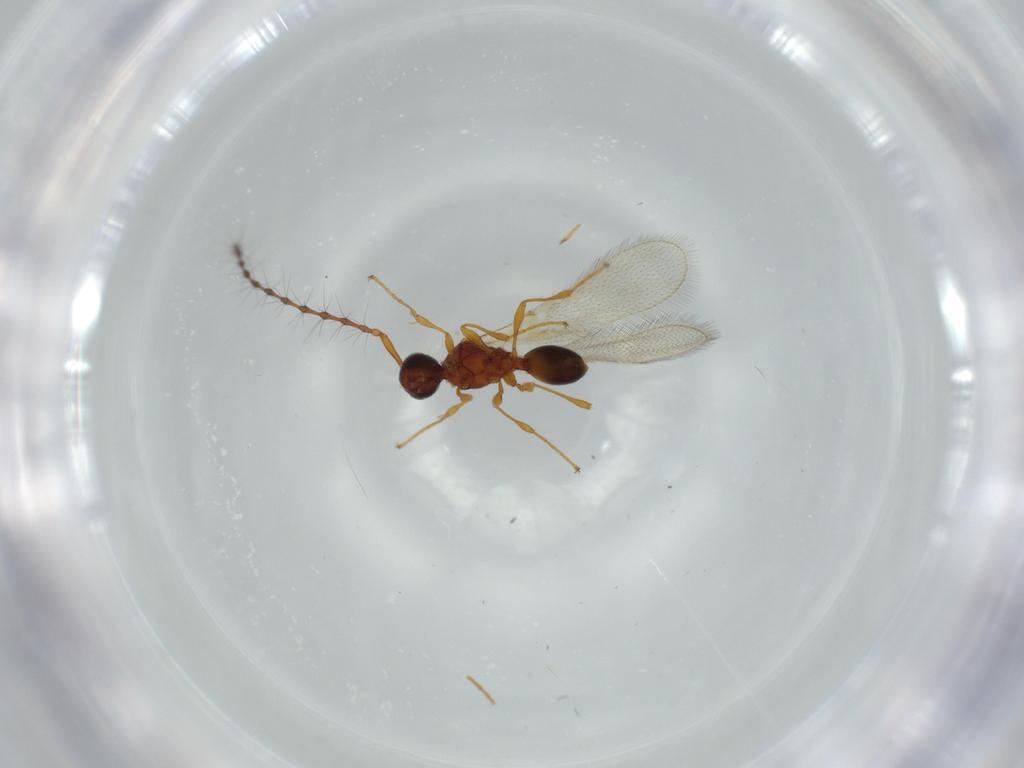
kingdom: Animalia
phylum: Arthropoda
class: Insecta
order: Hymenoptera
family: Diapriidae
